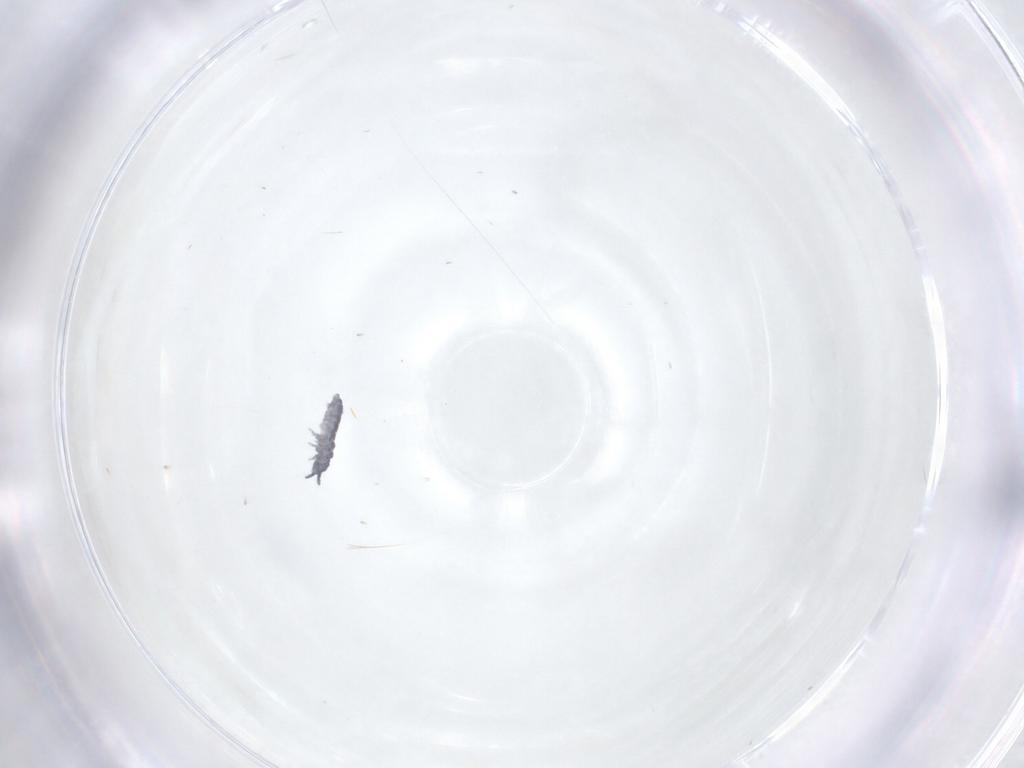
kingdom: Animalia
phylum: Arthropoda
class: Collembola
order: Poduromorpha
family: Hypogastruridae
